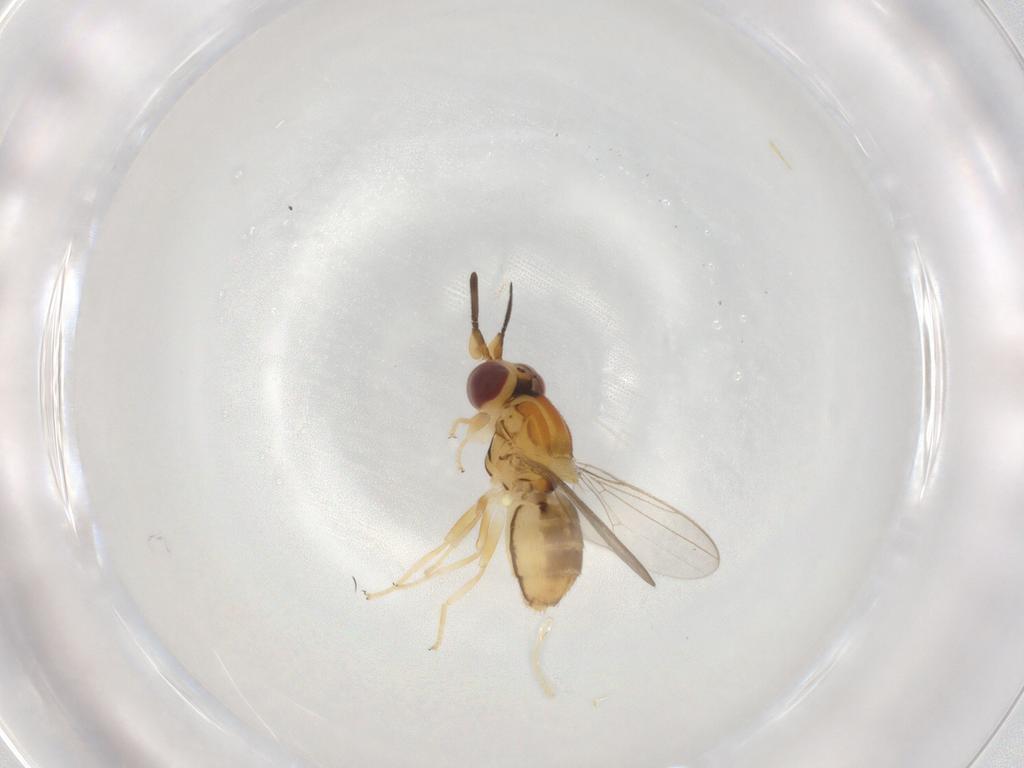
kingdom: Animalia
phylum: Arthropoda
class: Insecta
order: Diptera
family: Chloropidae
